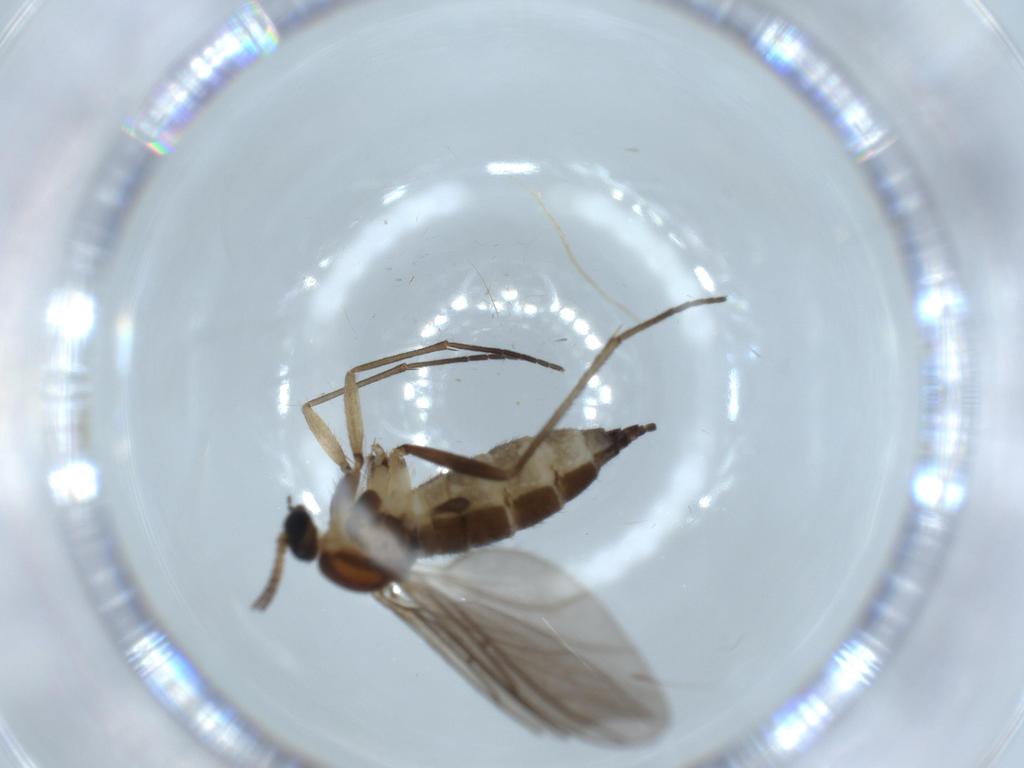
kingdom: Animalia
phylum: Arthropoda
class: Insecta
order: Diptera
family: Sciaridae
